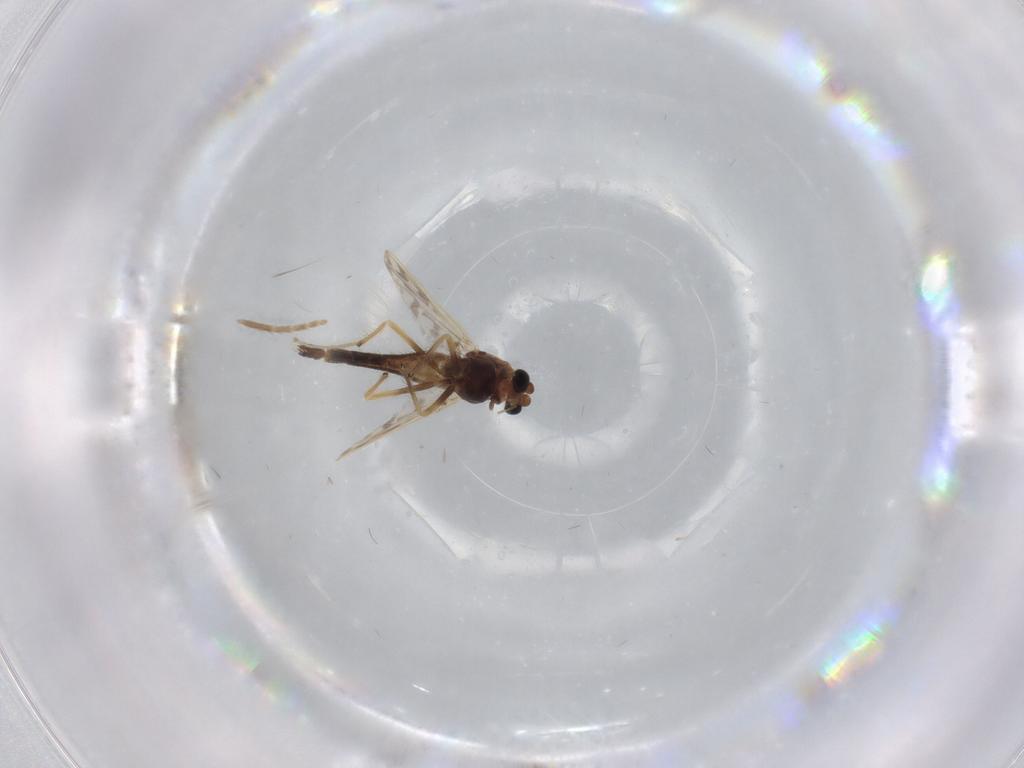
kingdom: Animalia
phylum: Arthropoda
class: Insecta
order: Diptera
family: Chironomidae
